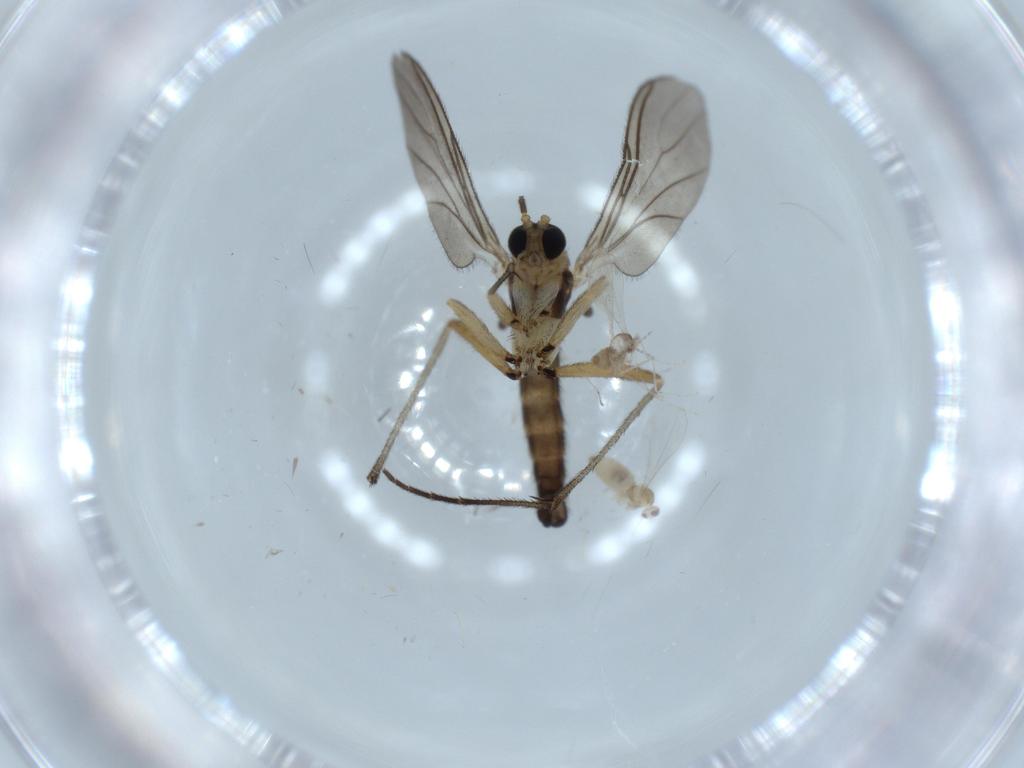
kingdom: Animalia
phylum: Arthropoda
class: Insecta
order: Diptera
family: Cecidomyiidae
